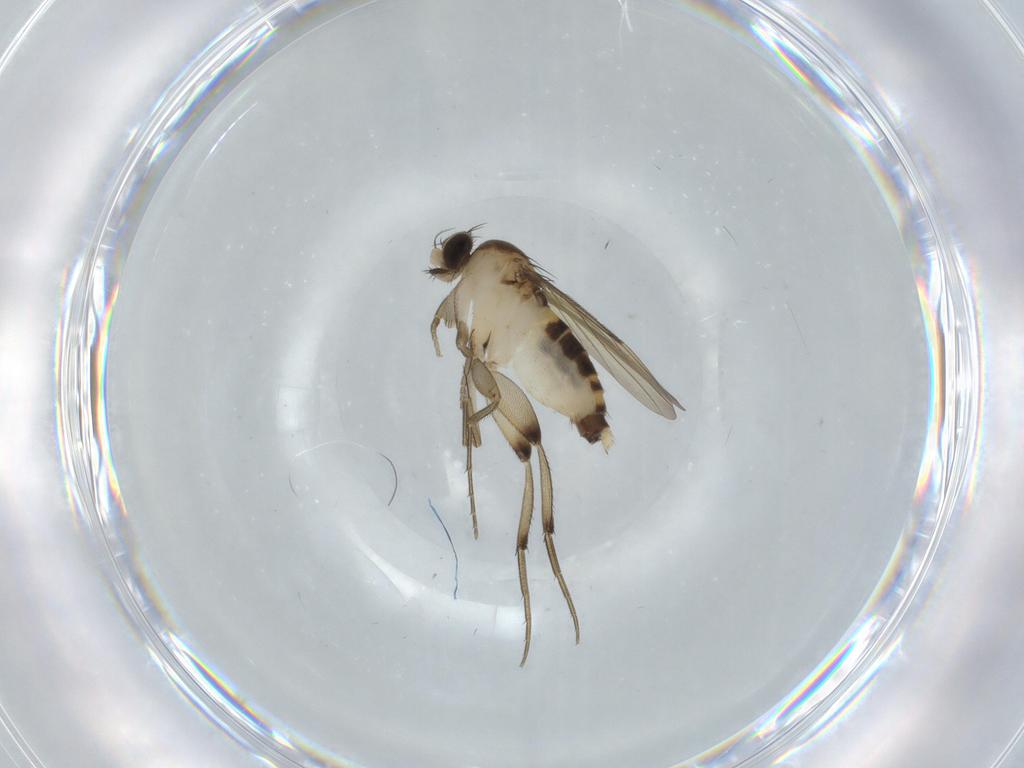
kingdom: Animalia
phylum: Arthropoda
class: Insecta
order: Diptera
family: Phoridae
